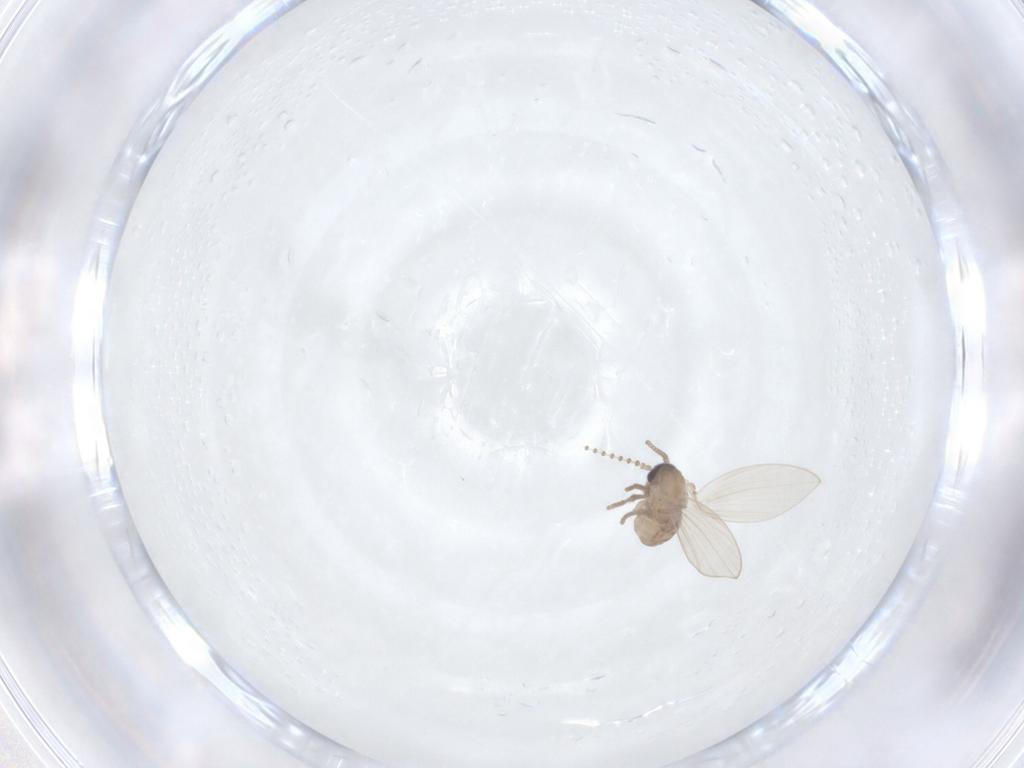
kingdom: Animalia
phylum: Arthropoda
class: Insecta
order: Diptera
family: Psychodidae
